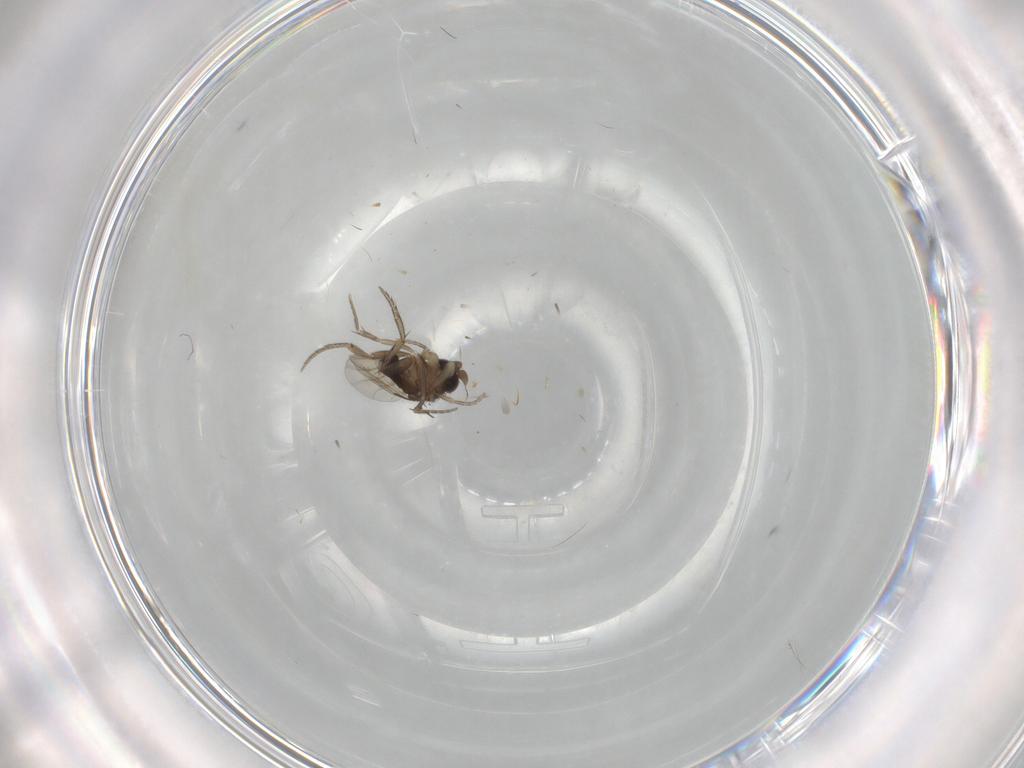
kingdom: Animalia
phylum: Arthropoda
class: Insecta
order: Diptera
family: Phoridae
